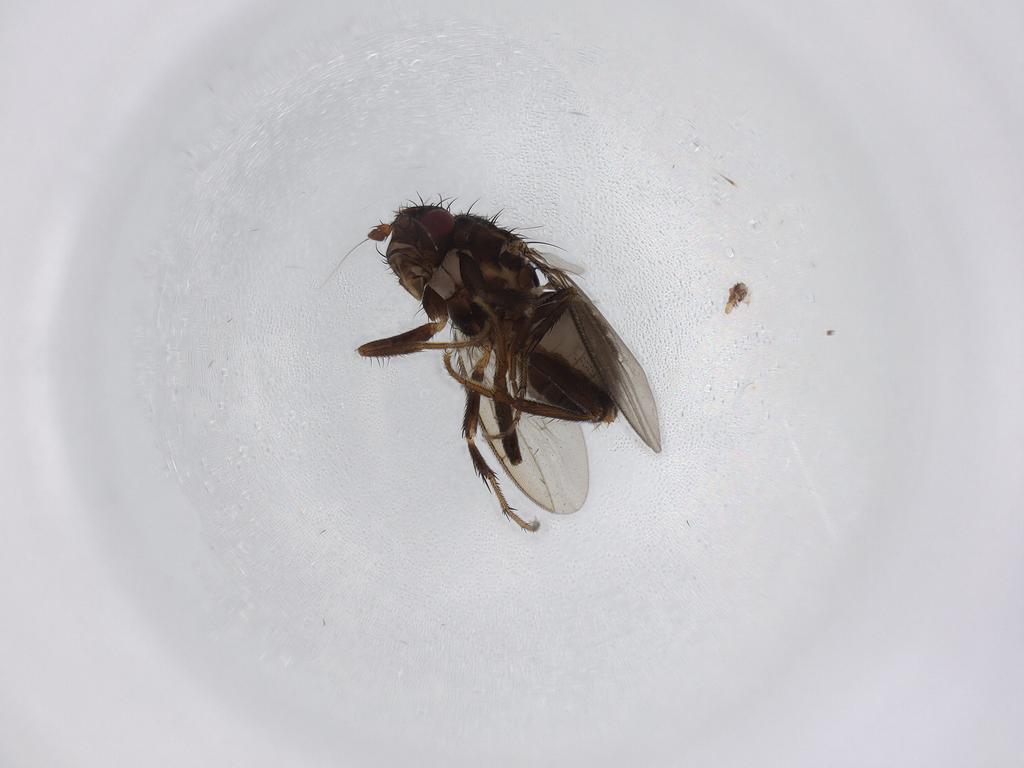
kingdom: Animalia
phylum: Arthropoda
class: Insecta
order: Diptera
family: Sphaeroceridae
